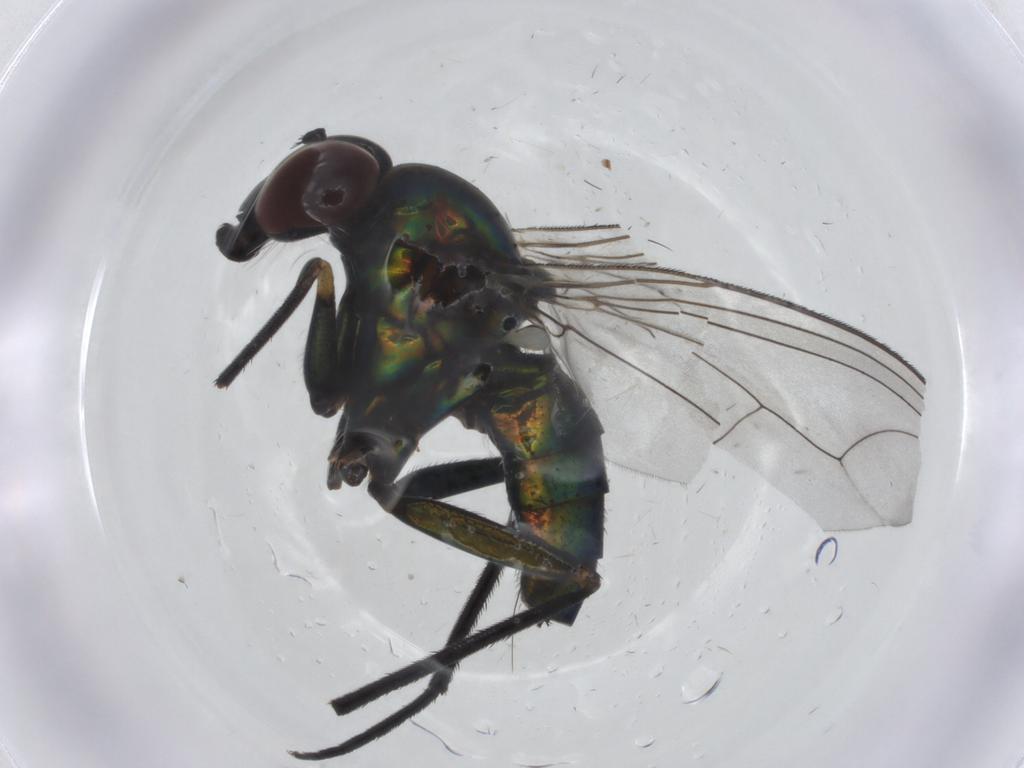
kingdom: Animalia
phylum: Arthropoda
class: Insecta
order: Diptera
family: Dolichopodidae
